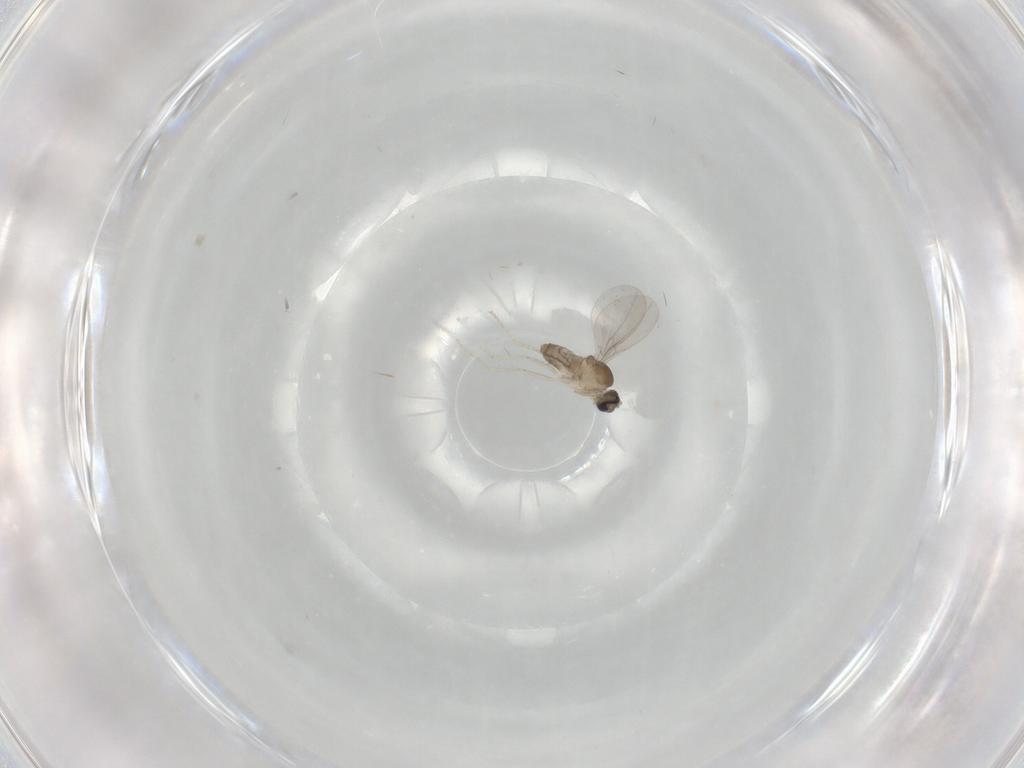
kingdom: Animalia
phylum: Arthropoda
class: Insecta
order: Diptera
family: Cecidomyiidae
